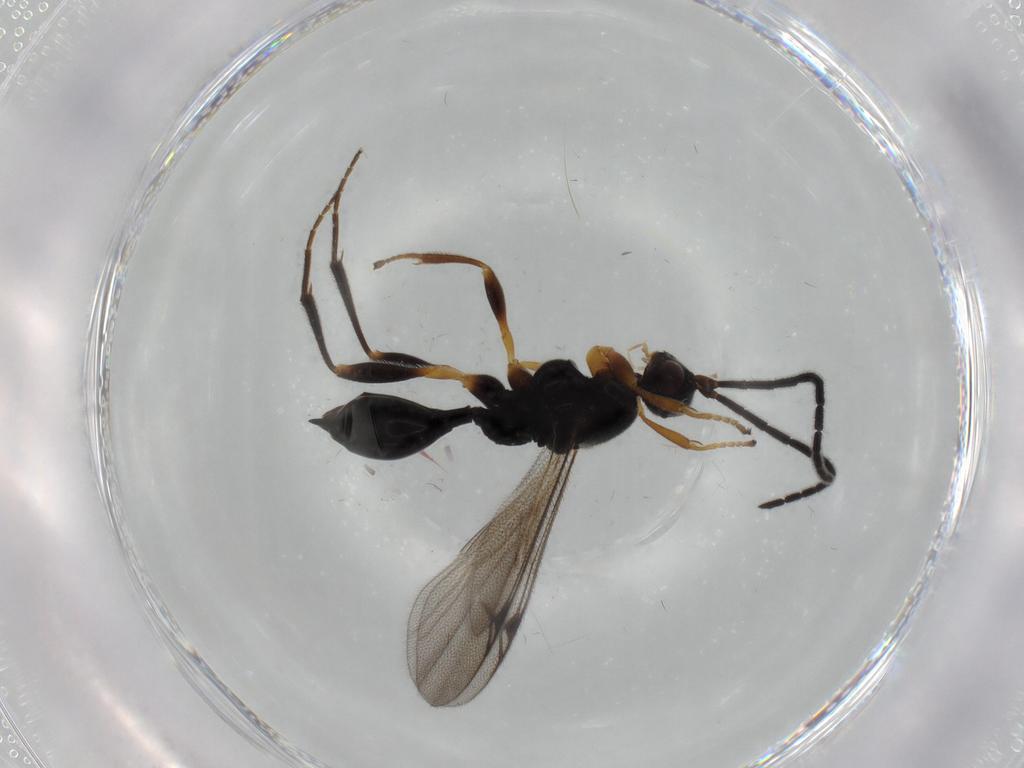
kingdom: Animalia
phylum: Arthropoda
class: Insecta
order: Hymenoptera
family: Proctotrupidae
